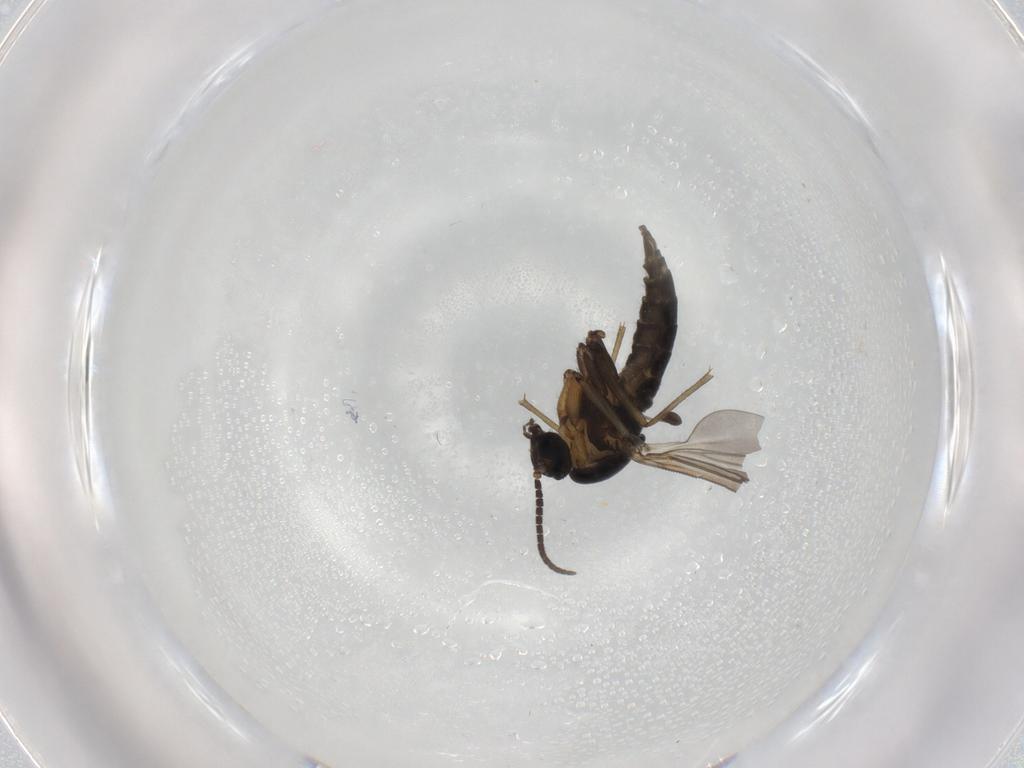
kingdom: Animalia
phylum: Arthropoda
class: Insecta
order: Diptera
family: Sciaridae
